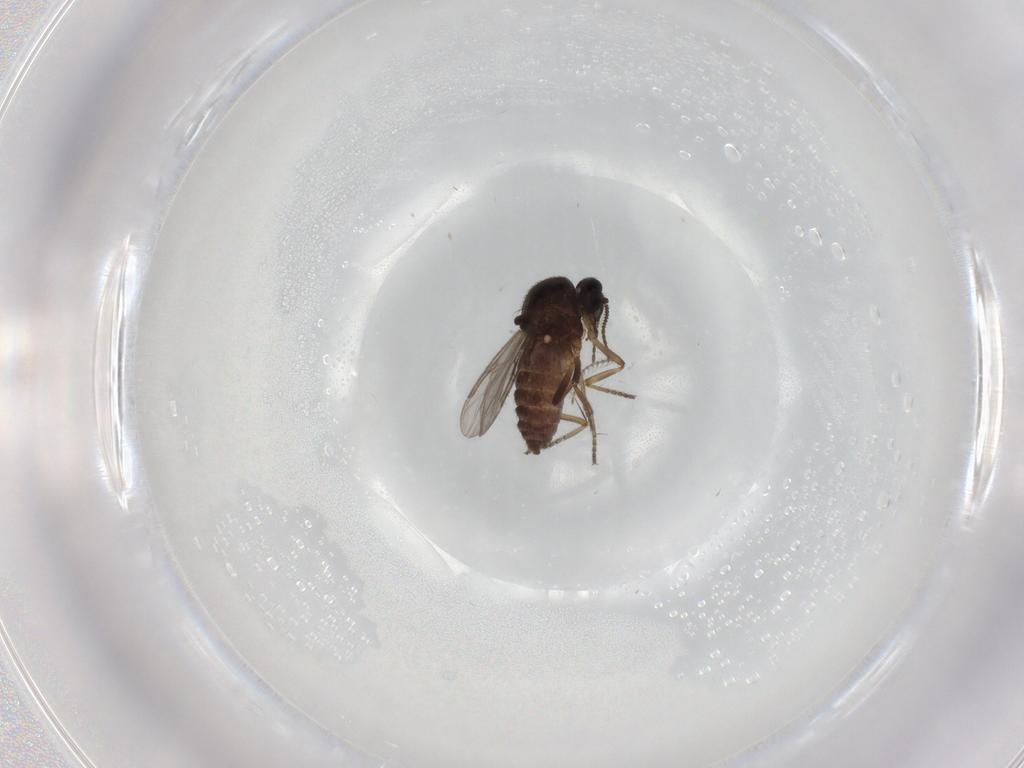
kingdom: Animalia
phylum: Arthropoda
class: Insecta
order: Diptera
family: Ceratopogonidae
